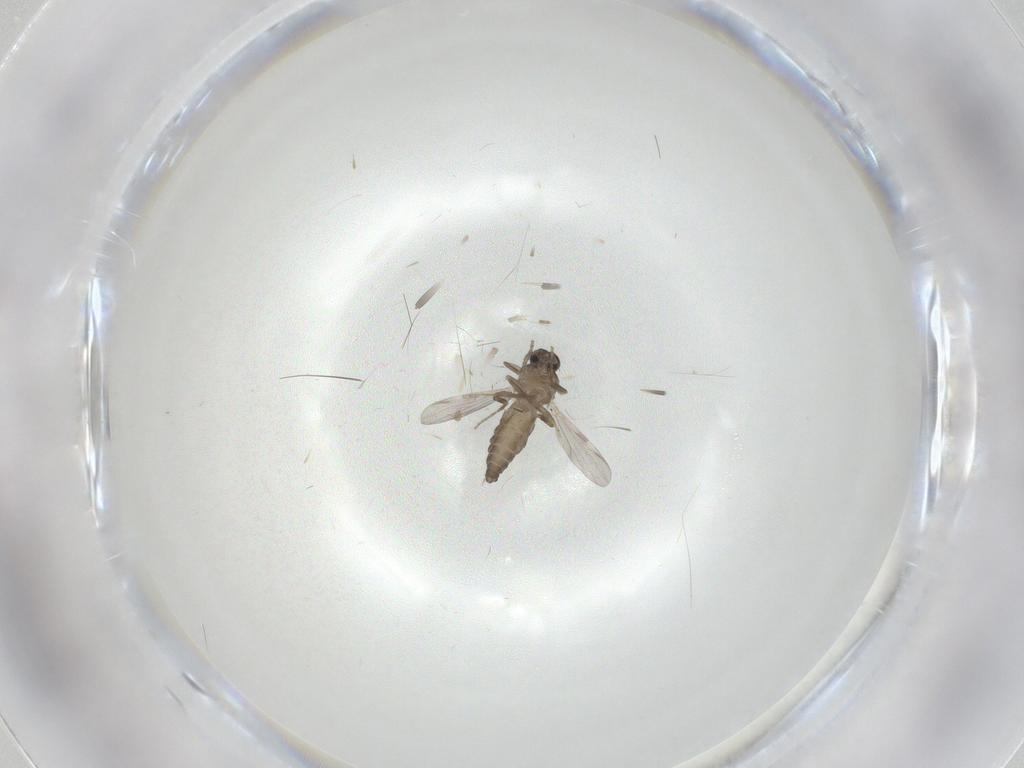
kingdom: Animalia
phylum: Arthropoda
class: Insecta
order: Diptera
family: Ceratopogonidae
